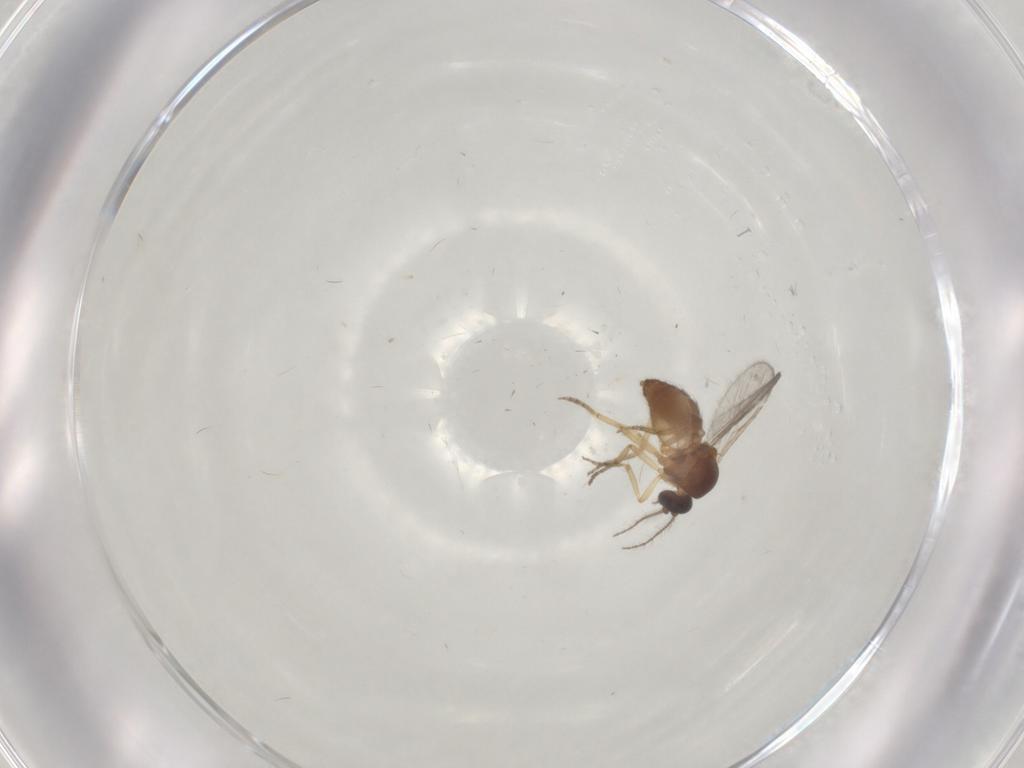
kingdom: Animalia
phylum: Arthropoda
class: Insecta
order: Diptera
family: Ceratopogonidae
